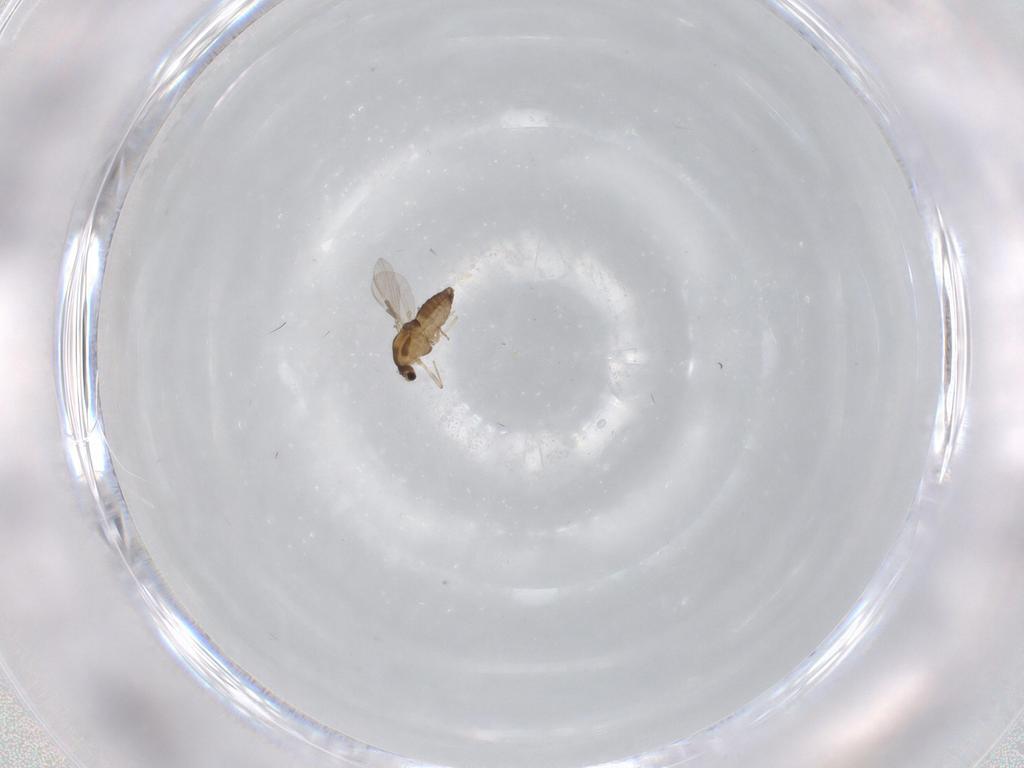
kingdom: Animalia
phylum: Arthropoda
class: Insecta
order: Diptera
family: Chironomidae
